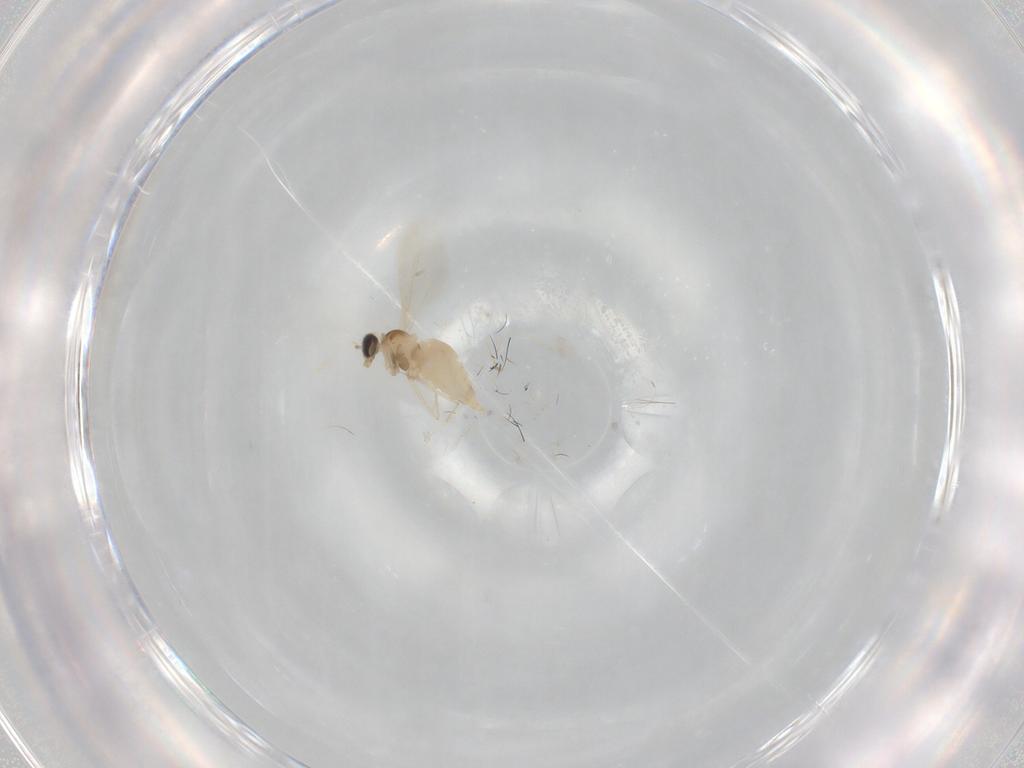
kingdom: Animalia
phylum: Arthropoda
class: Insecta
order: Diptera
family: Cecidomyiidae
